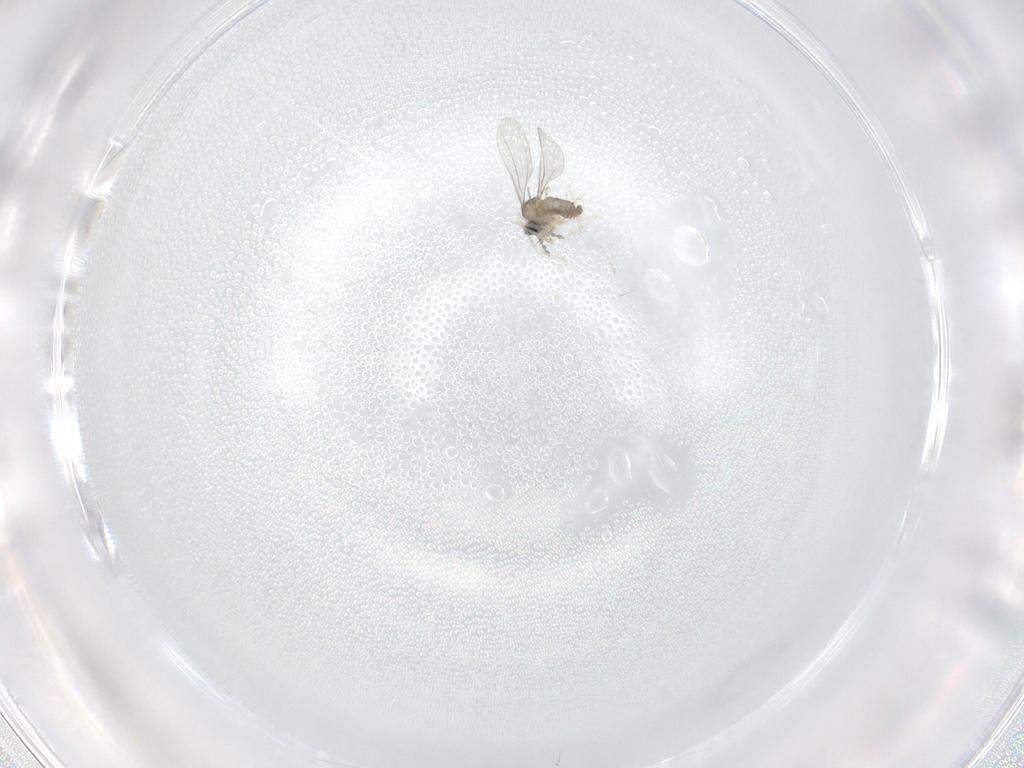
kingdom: Animalia
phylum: Arthropoda
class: Insecta
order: Diptera
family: Cecidomyiidae
